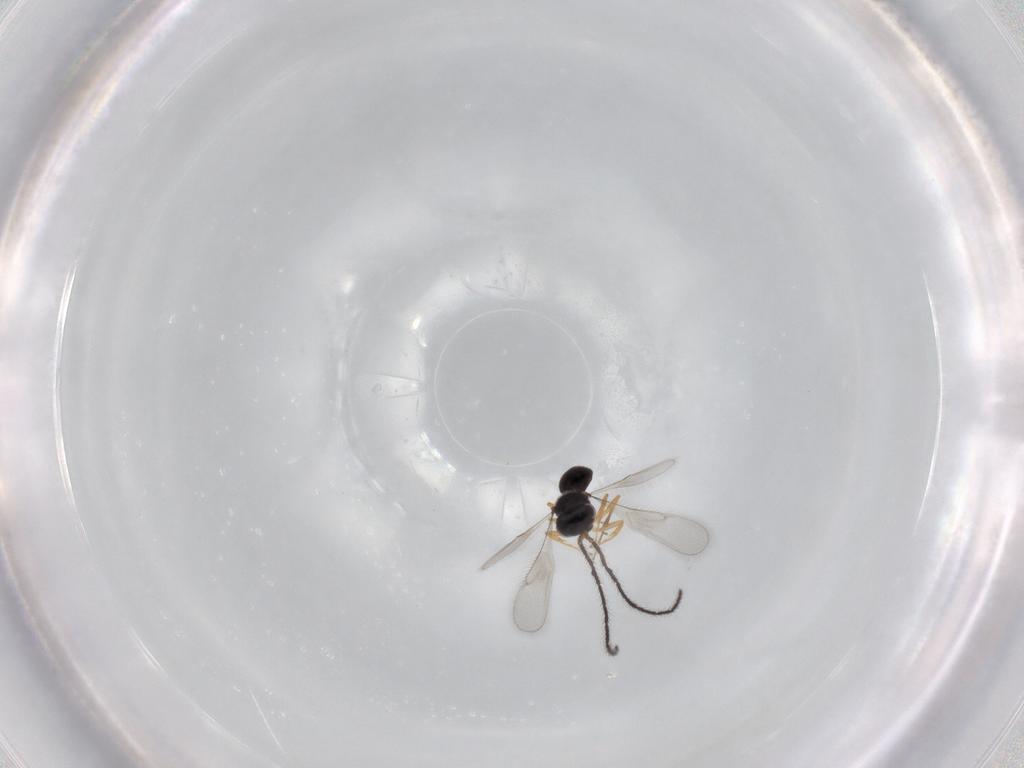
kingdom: Animalia
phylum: Arthropoda
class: Insecta
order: Hymenoptera
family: Scelionidae
